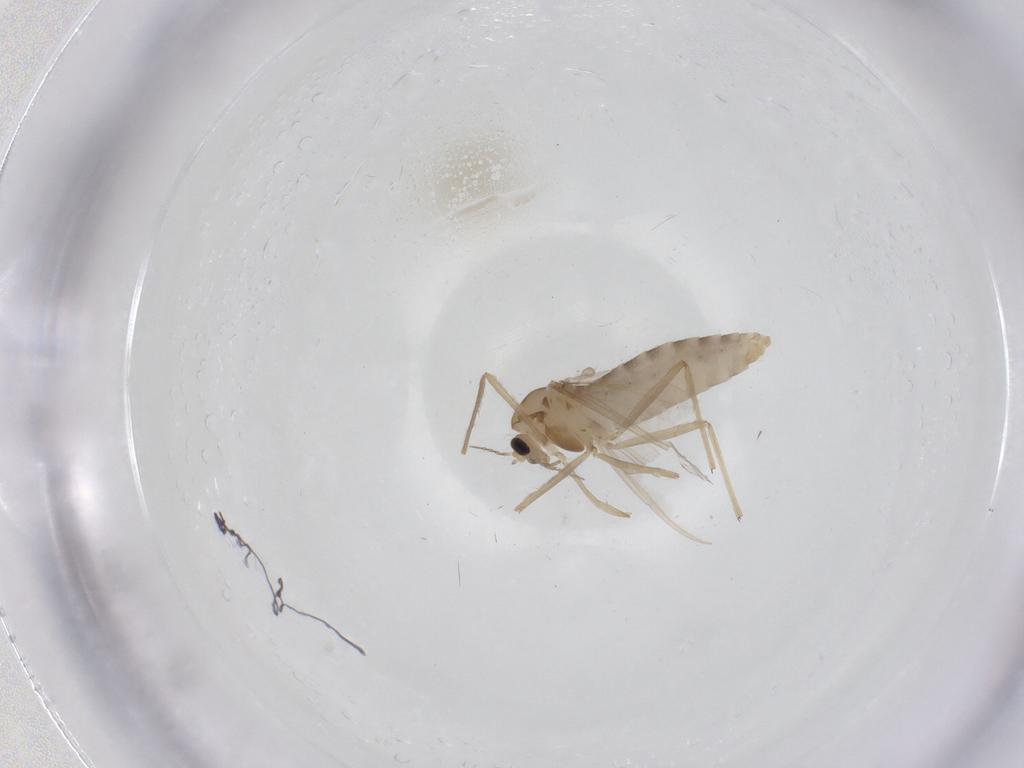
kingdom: Animalia
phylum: Arthropoda
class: Insecta
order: Diptera
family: Chironomidae
